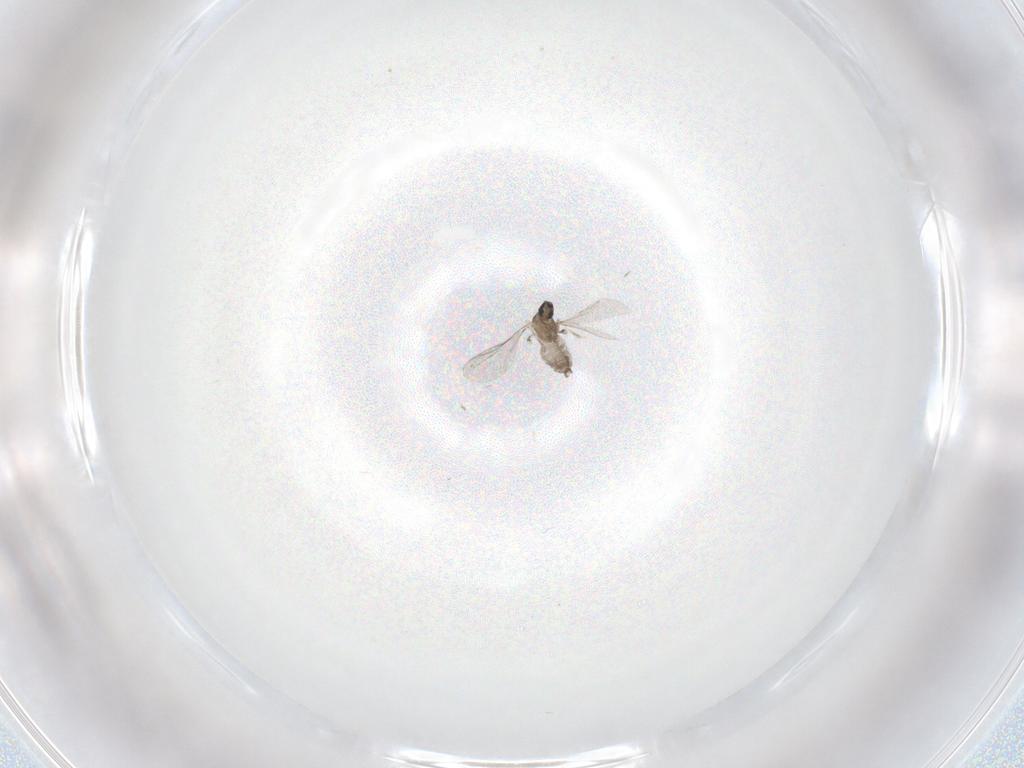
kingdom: Animalia
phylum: Arthropoda
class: Insecta
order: Diptera
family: Cecidomyiidae
